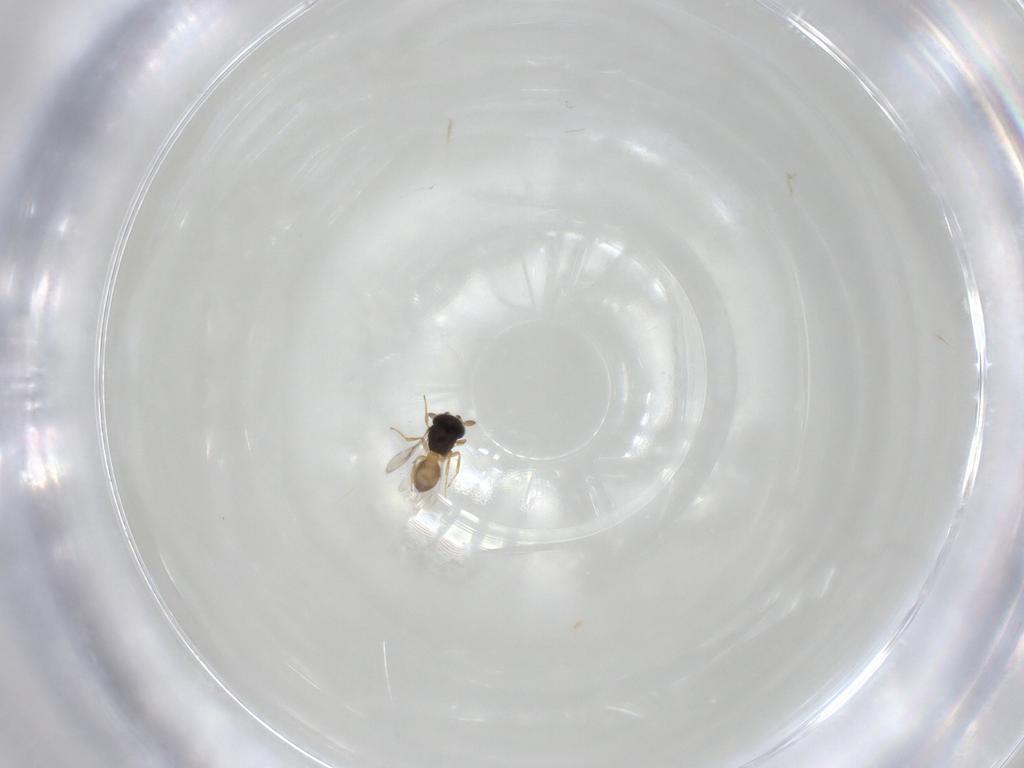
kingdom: Animalia
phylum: Arthropoda
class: Insecta
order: Hymenoptera
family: Scelionidae
